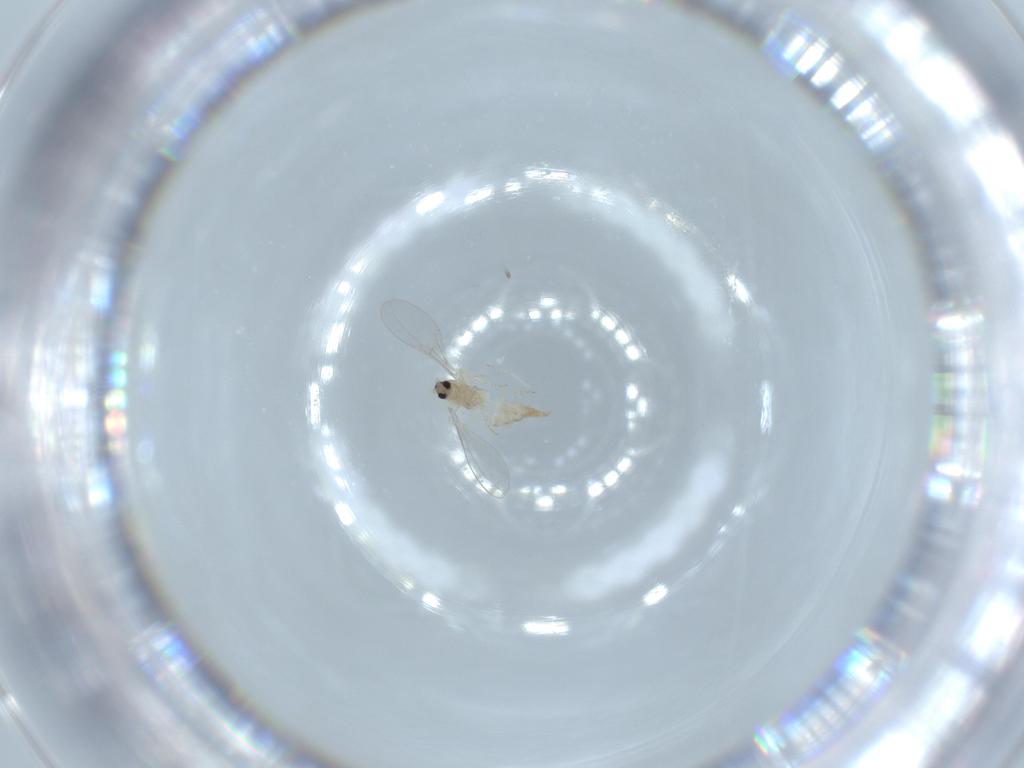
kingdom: Animalia
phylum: Arthropoda
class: Insecta
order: Diptera
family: Cecidomyiidae
